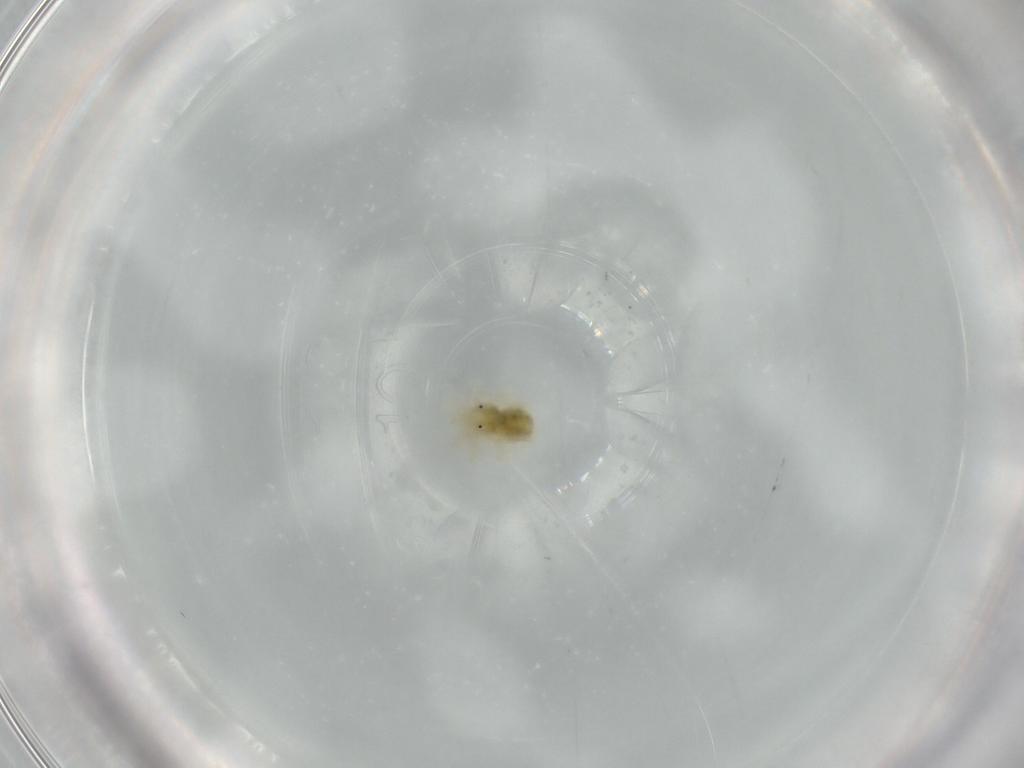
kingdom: Animalia
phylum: Arthropoda
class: Arachnida
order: Trombidiformes
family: Anystidae
